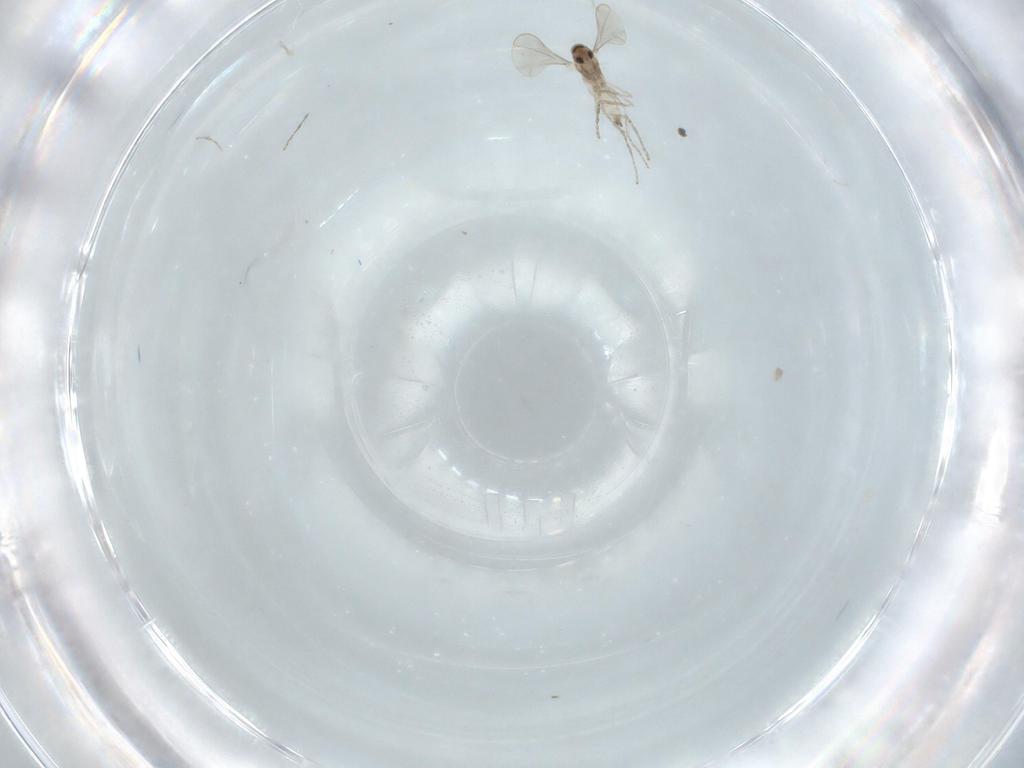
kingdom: Animalia
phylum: Arthropoda
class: Insecta
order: Diptera
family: Cecidomyiidae
